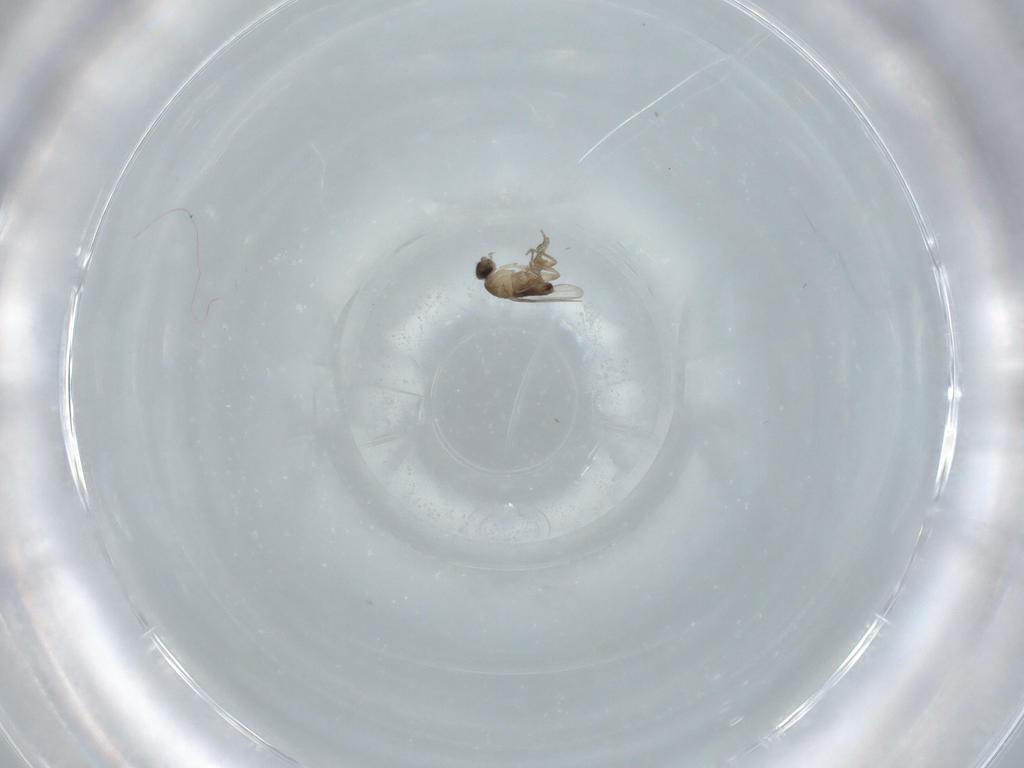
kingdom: Animalia
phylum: Arthropoda
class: Insecta
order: Diptera
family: Phoridae
